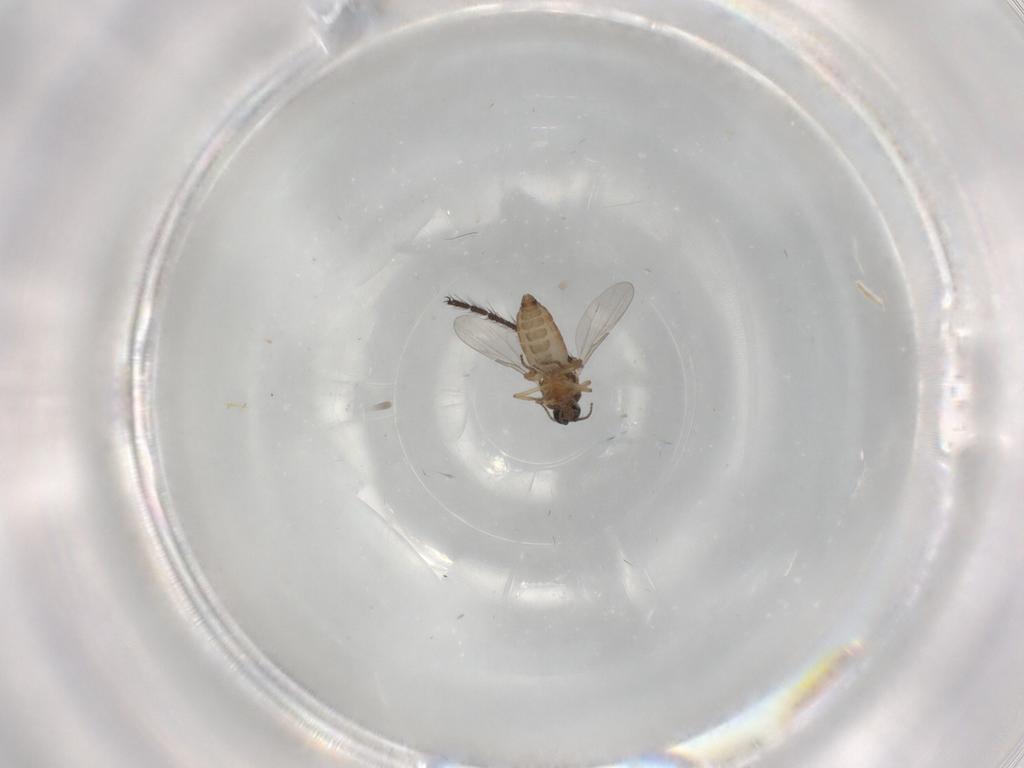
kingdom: Animalia
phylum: Arthropoda
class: Insecta
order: Diptera
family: Ceratopogonidae
